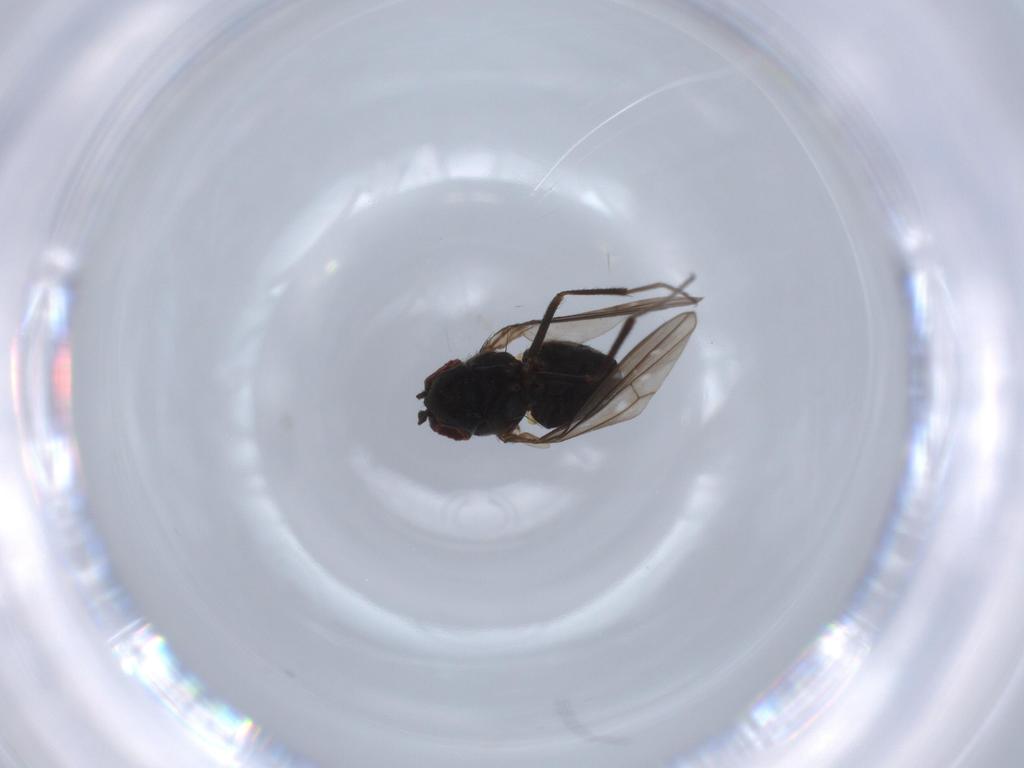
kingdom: Animalia
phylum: Arthropoda
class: Insecta
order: Diptera
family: Ephydridae
